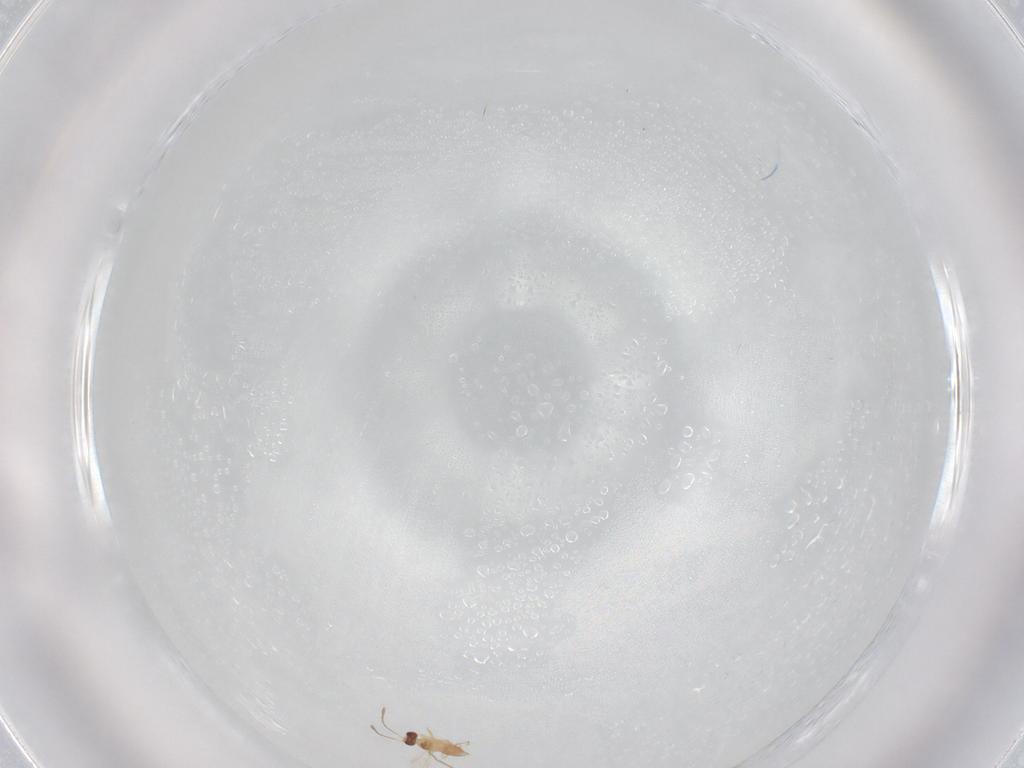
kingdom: Animalia
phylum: Arthropoda
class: Insecta
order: Hymenoptera
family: Mymaridae
